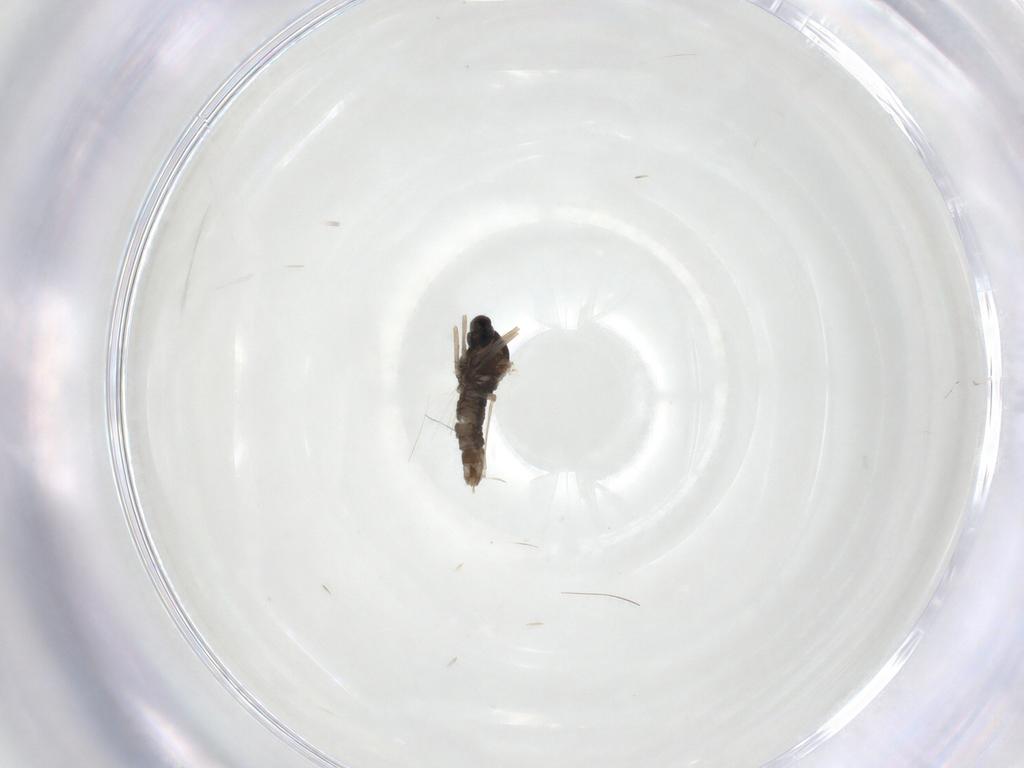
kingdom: Animalia
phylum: Arthropoda
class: Insecta
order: Diptera
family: Cecidomyiidae
